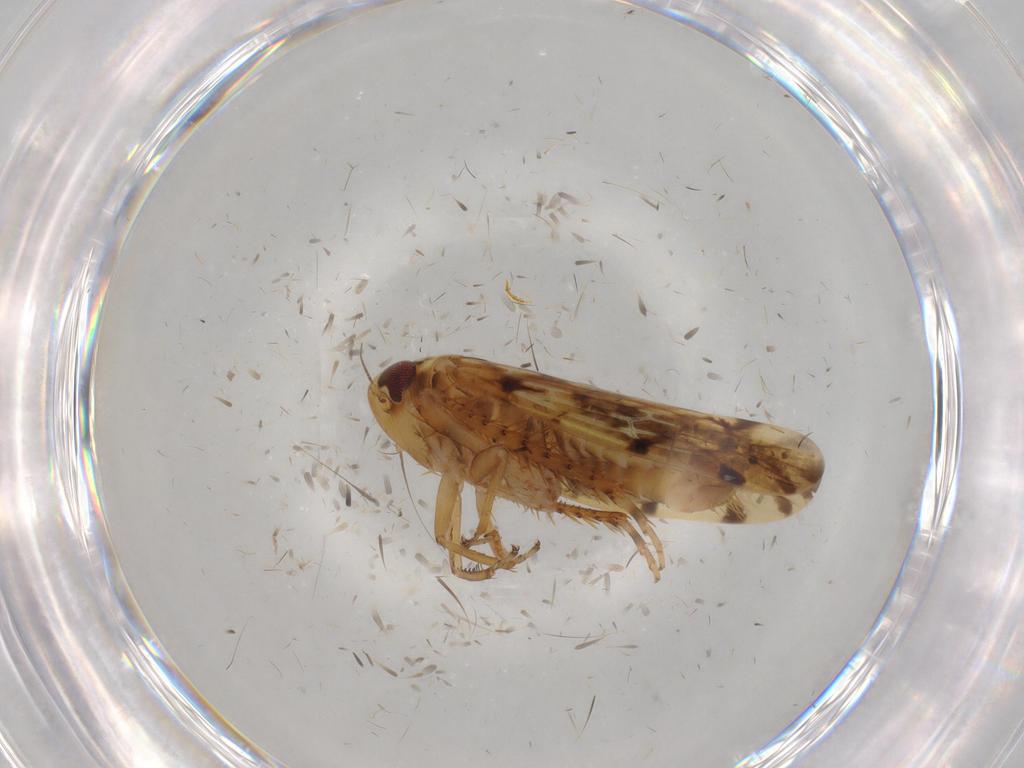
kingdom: Animalia
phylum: Arthropoda
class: Insecta
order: Hemiptera
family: Cicadellidae
